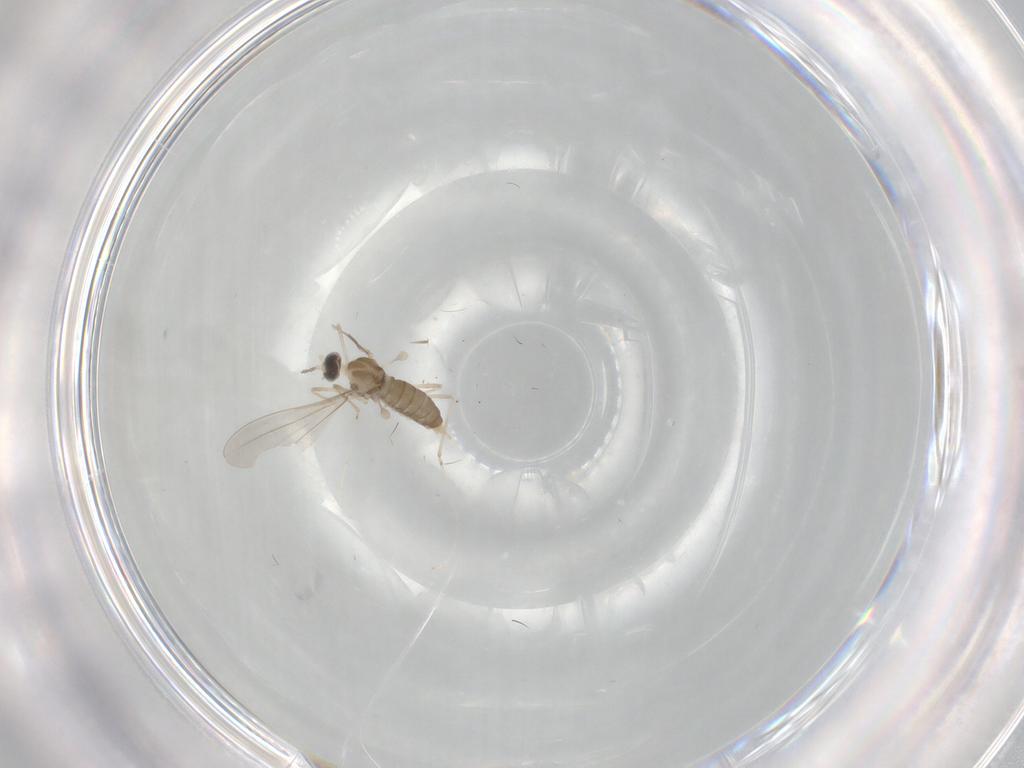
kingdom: Animalia
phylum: Arthropoda
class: Insecta
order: Diptera
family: Cecidomyiidae
